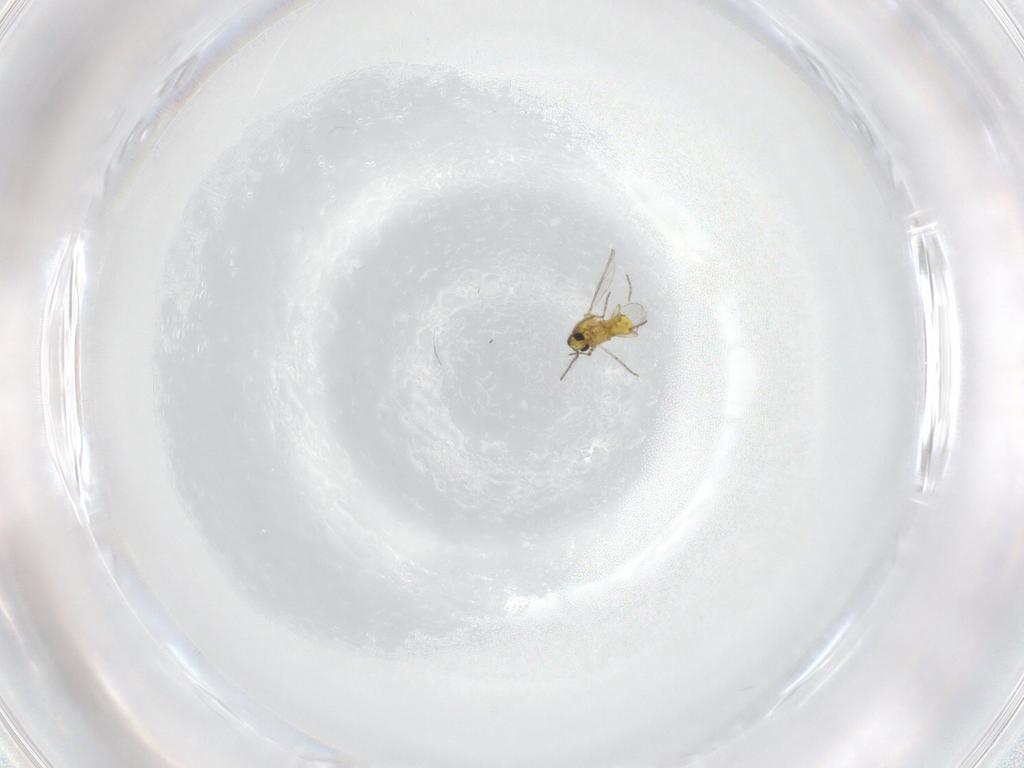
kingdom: Animalia
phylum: Arthropoda
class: Insecta
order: Diptera
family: Ceratopogonidae
